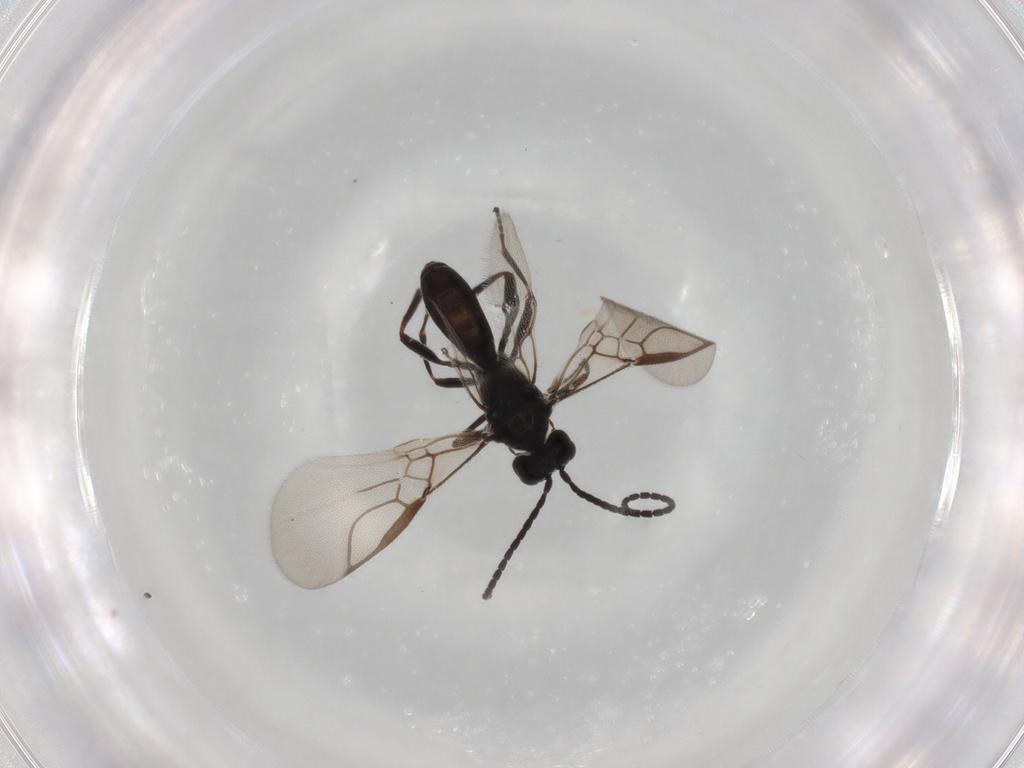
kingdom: Animalia
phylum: Arthropoda
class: Insecta
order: Hymenoptera
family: Braconidae
